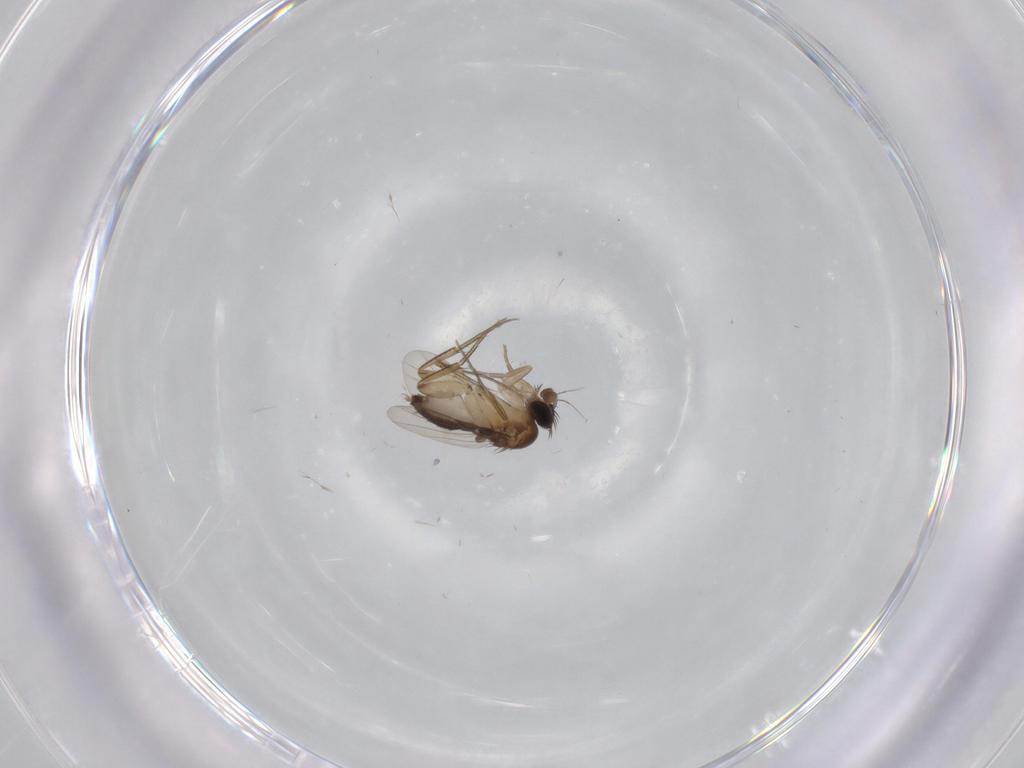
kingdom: Animalia
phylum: Arthropoda
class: Insecta
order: Diptera
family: Phoridae
